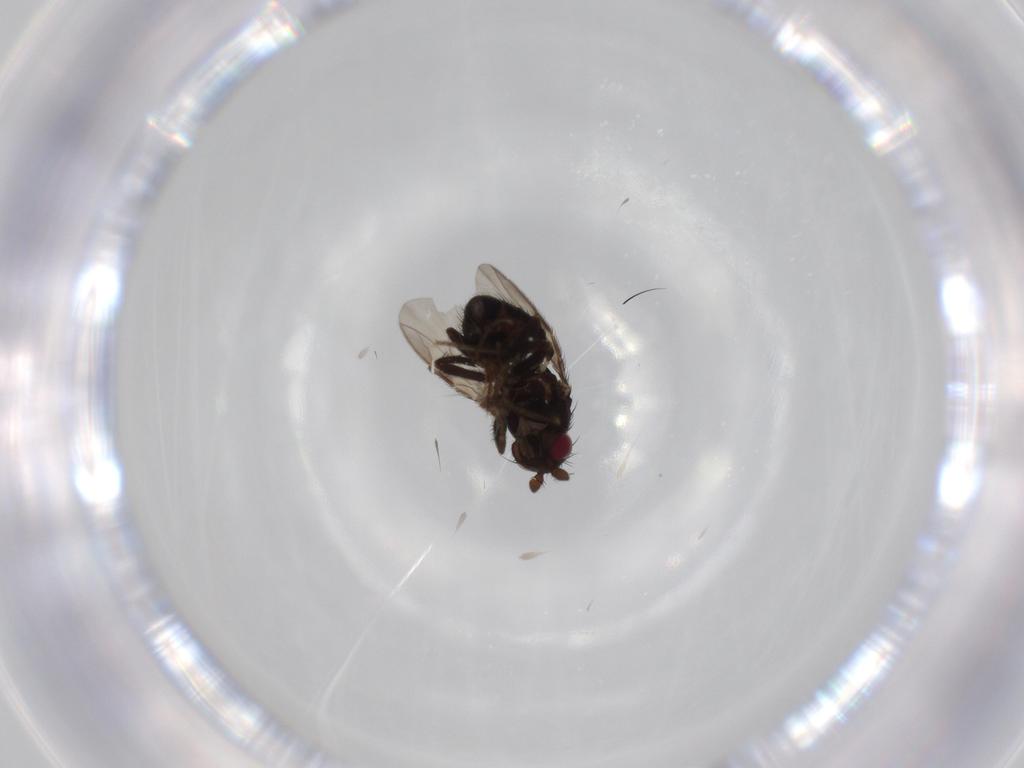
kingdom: Animalia
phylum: Arthropoda
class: Insecta
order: Diptera
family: Sphaeroceridae
